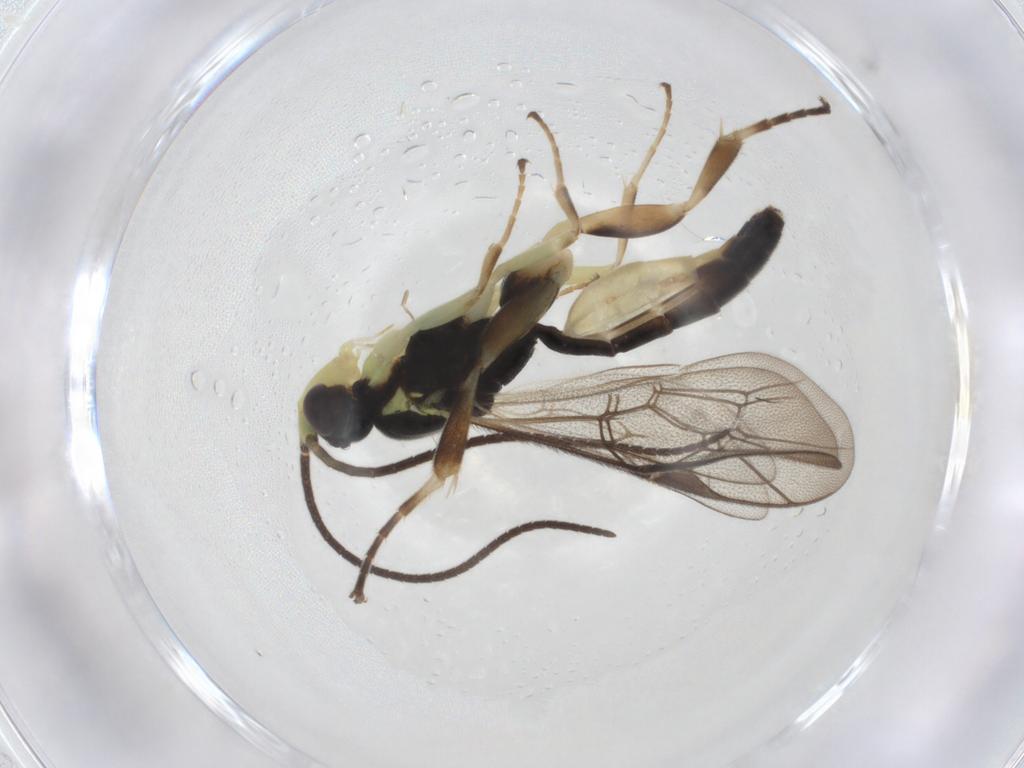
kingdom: Animalia
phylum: Arthropoda
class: Insecta
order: Hymenoptera
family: Ichneumonidae
